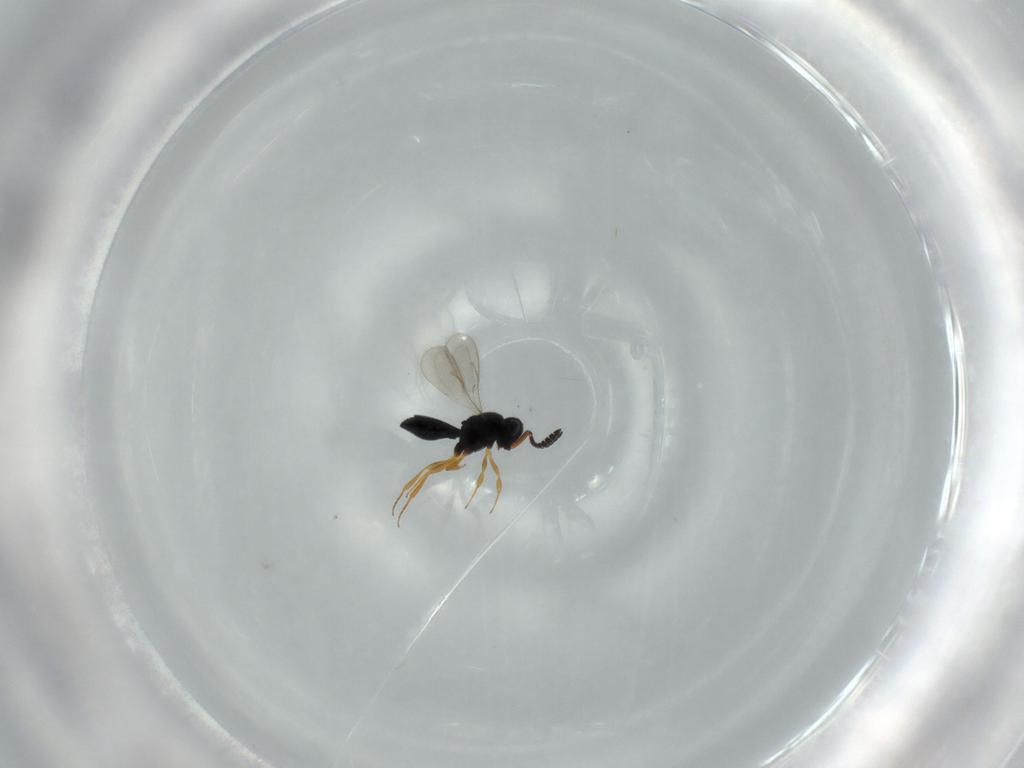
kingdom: Animalia
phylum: Arthropoda
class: Insecta
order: Hymenoptera
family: Scelionidae
